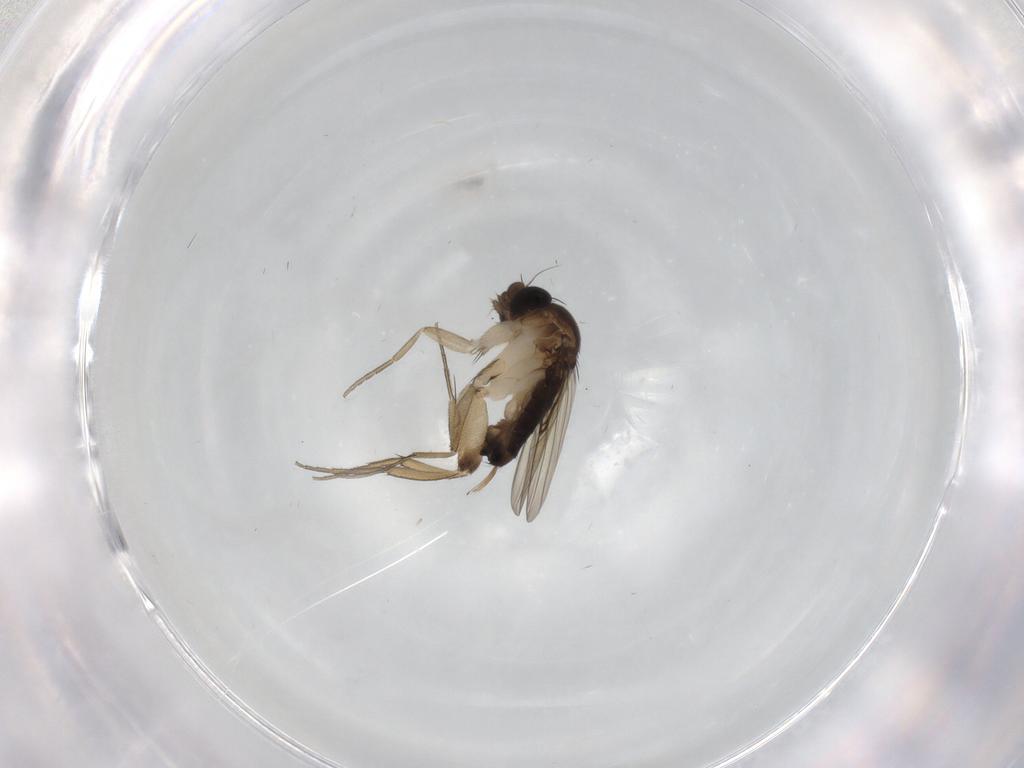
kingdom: Animalia
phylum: Arthropoda
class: Insecta
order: Diptera
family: Phoridae
